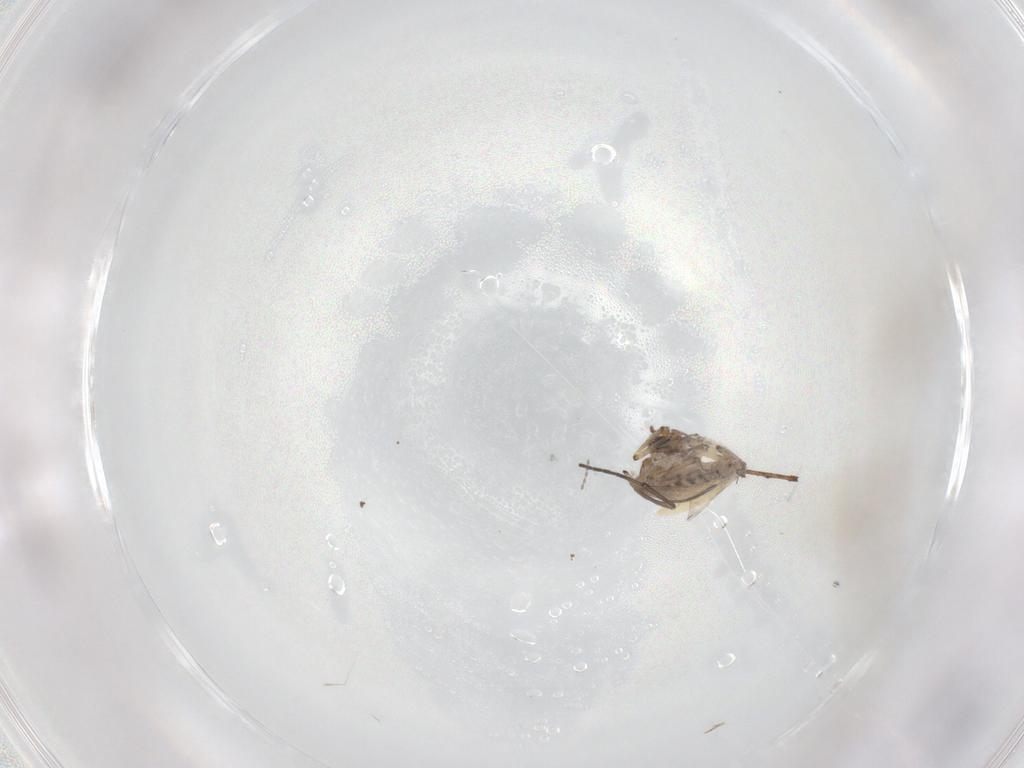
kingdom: Animalia
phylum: Arthropoda
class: Insecta
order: Diptera
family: Limoniidae
